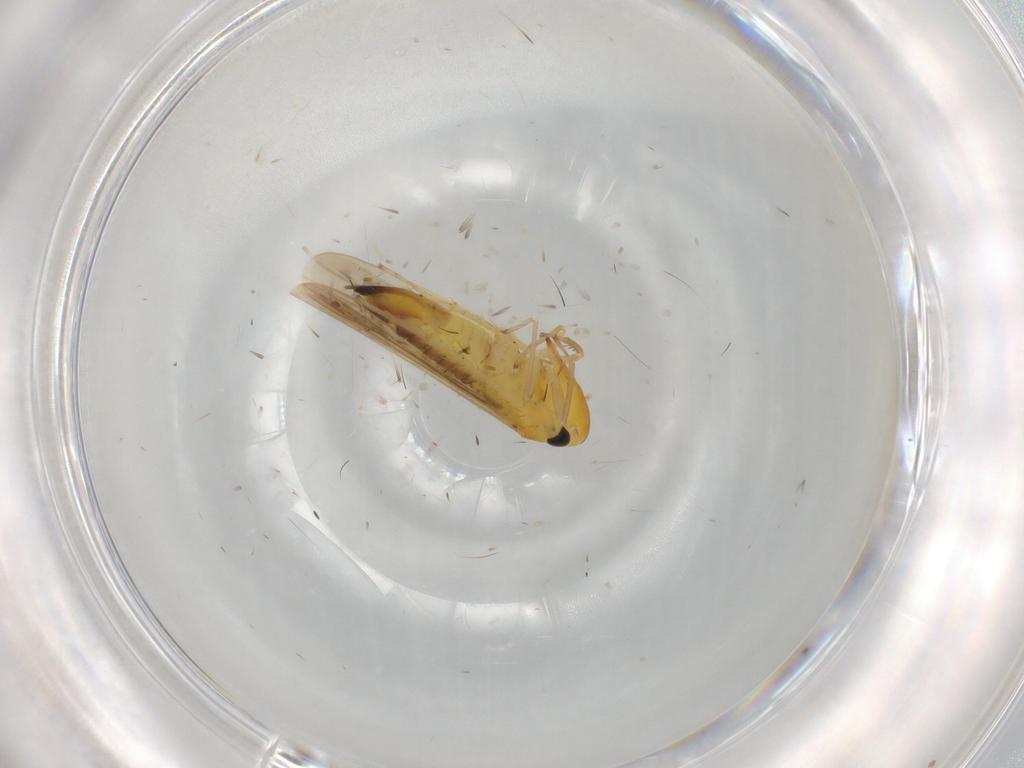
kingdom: Animalia
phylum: Arthropoda
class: Insecta
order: Hemiptera
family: Cicadellidae
